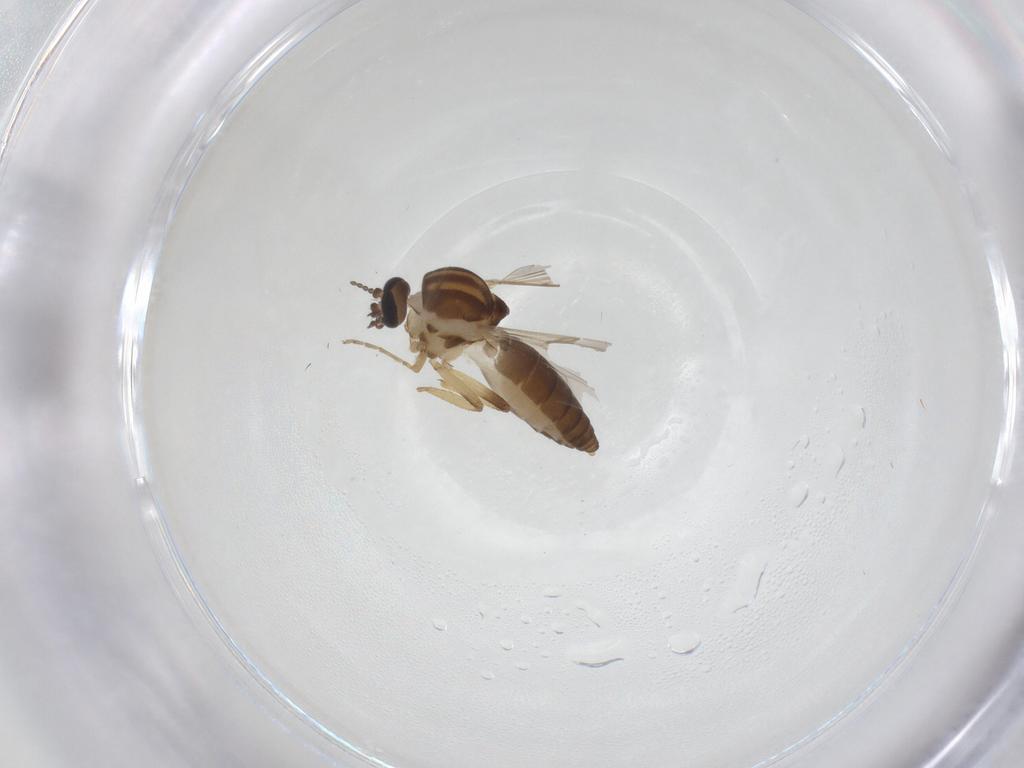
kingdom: Animalia
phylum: Arthropoda
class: Insecta
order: Diptera
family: Ceratopogonidae
